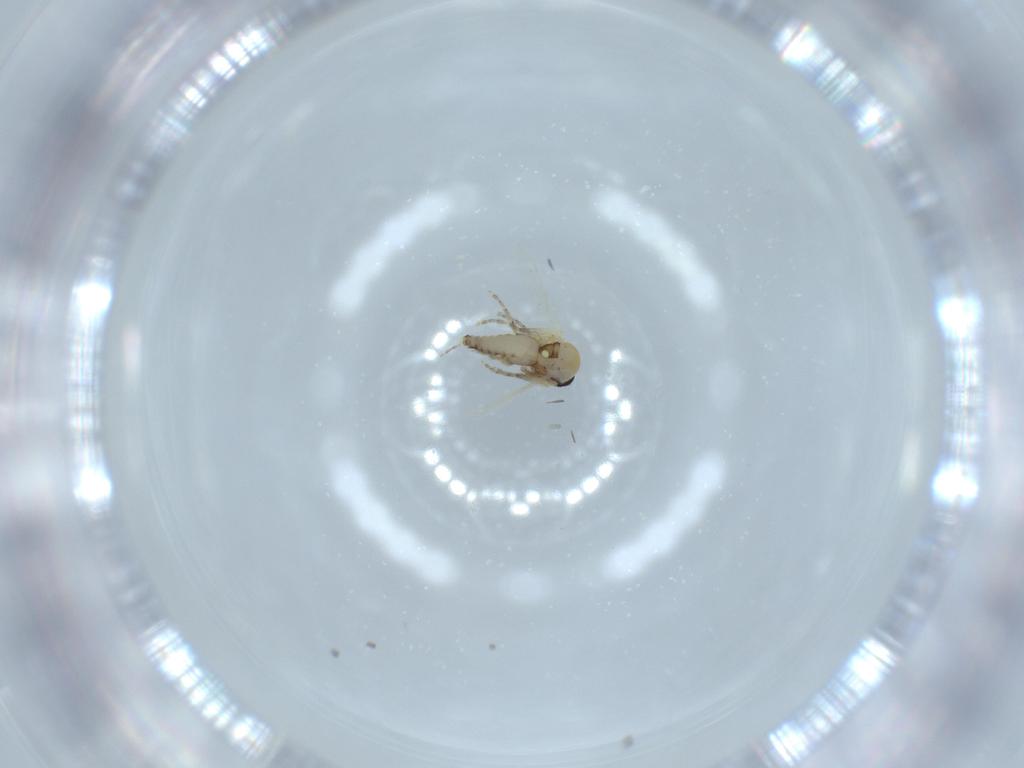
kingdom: Animalia
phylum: Arthropoda
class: Insecta
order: Diptera
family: Ceratopogonidae
